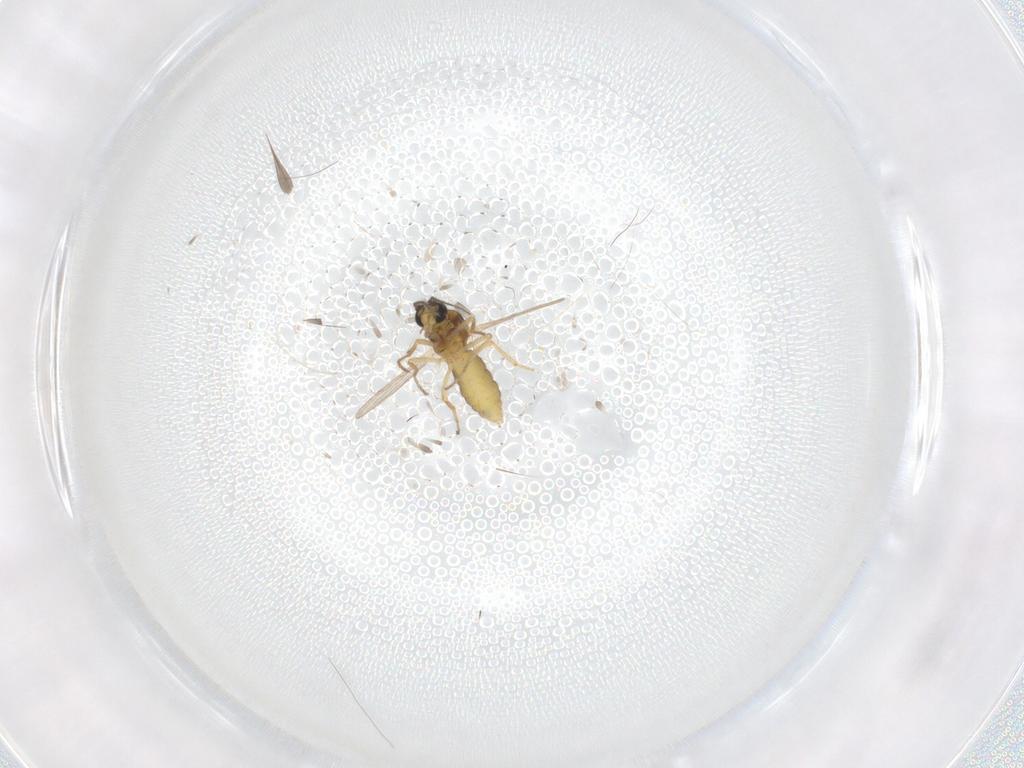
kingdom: Animalia
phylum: Arthropoda
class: Insecta
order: Diptera
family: Ceratopogonidae
